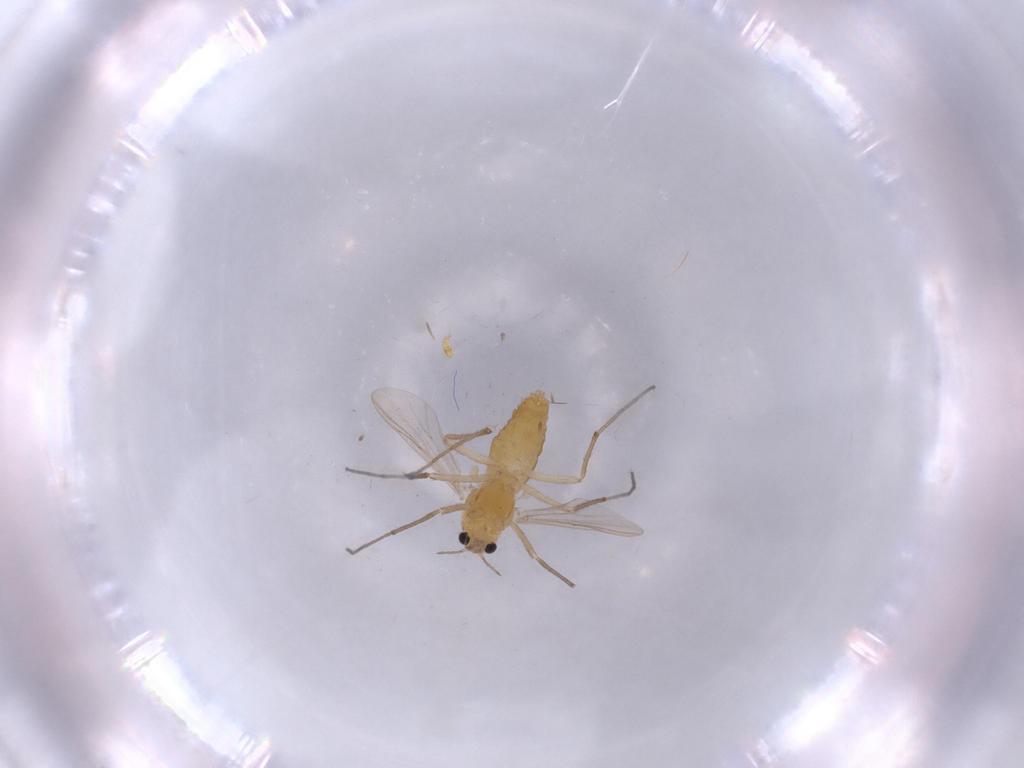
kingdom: Animalia
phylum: Arthropoda
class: Insecta
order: Diptera
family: Chironomidae
